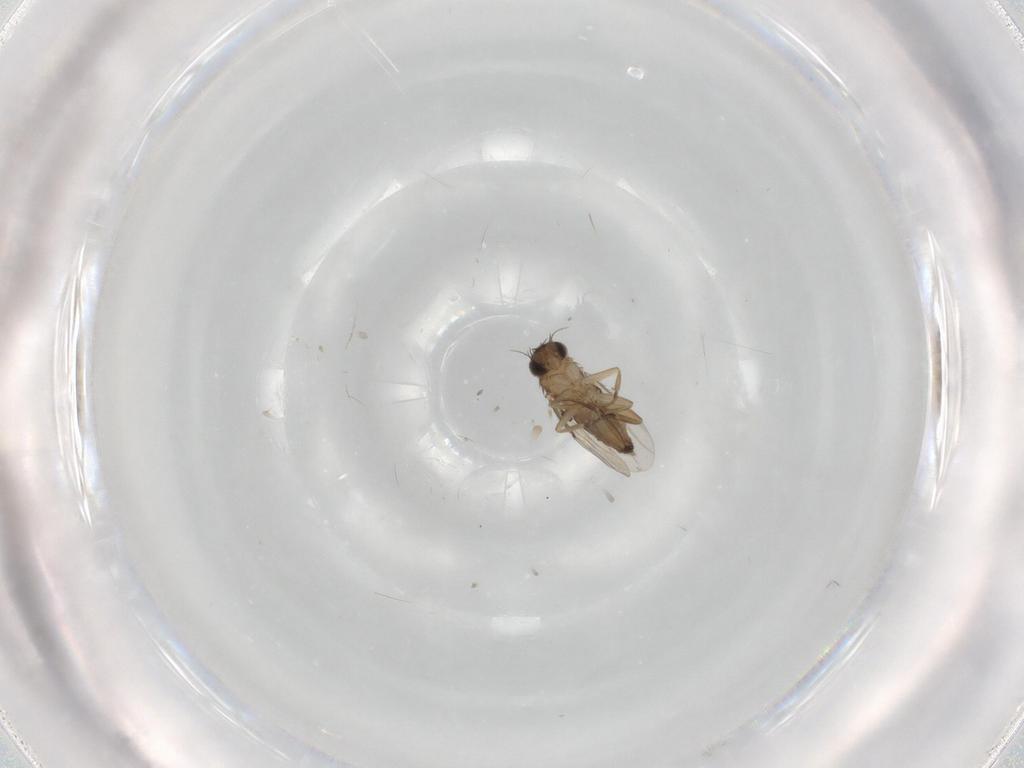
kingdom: Animalia
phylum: Arthropoda
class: Insecta
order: Diptera
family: Phoridae
